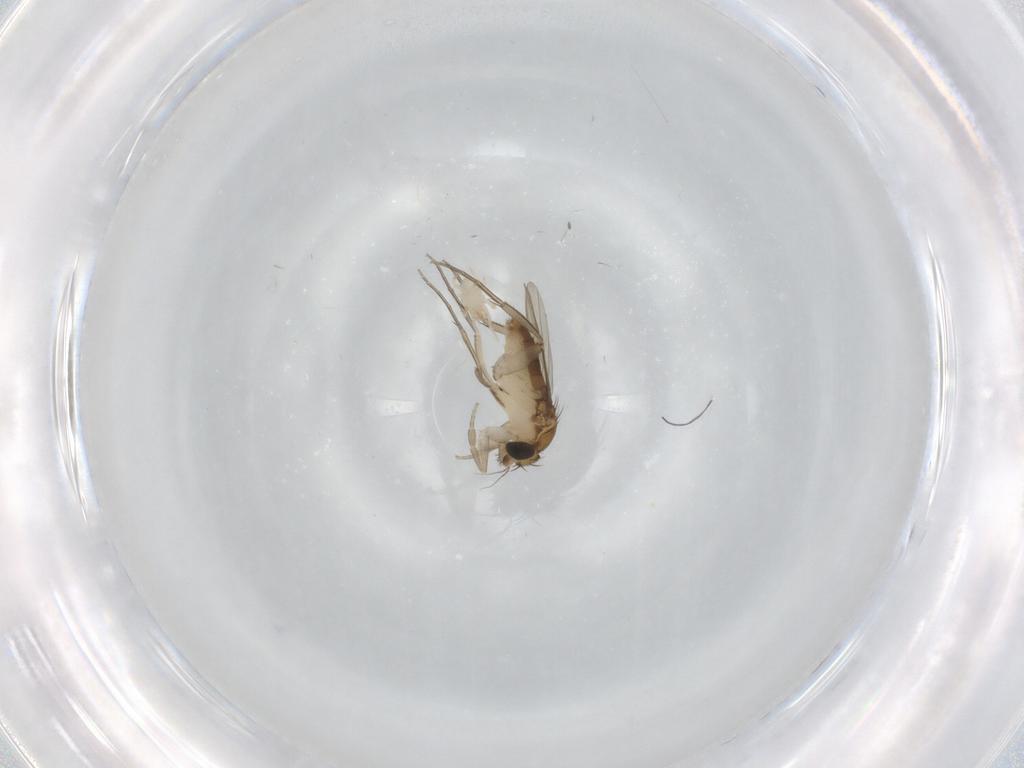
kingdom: Animalia
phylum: Arthropoda
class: Insecta
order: Diptera
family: Phoridae
